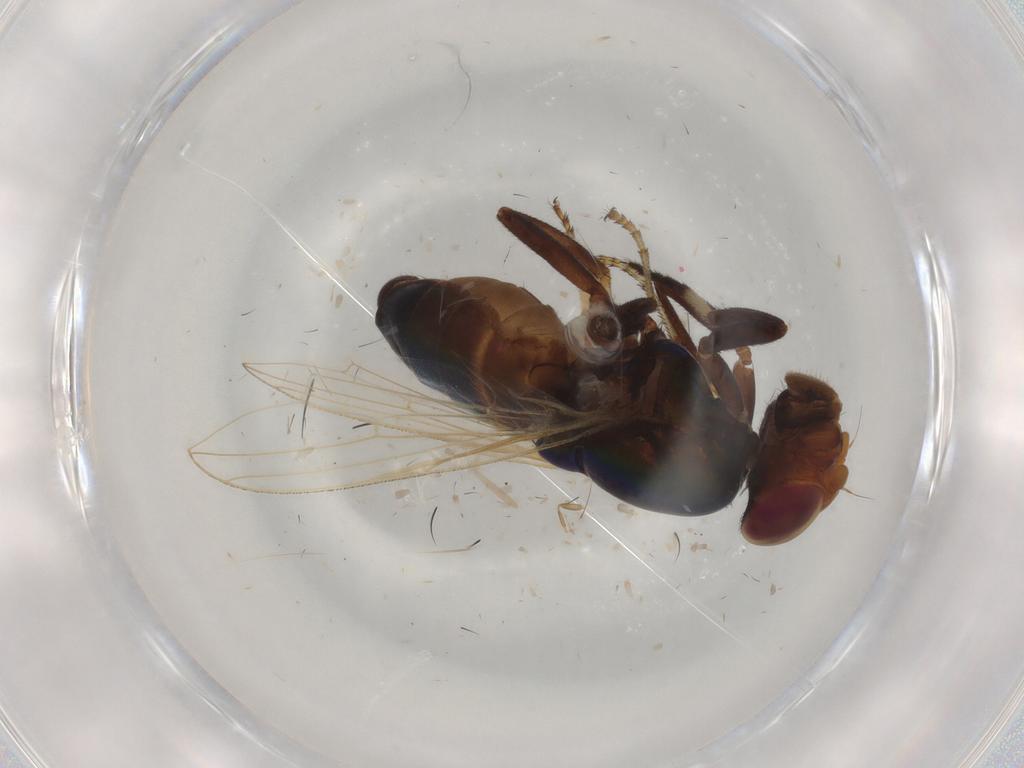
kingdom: Animalia
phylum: Arthropoda
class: Insecta
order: Diptera
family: Ulidiidae
